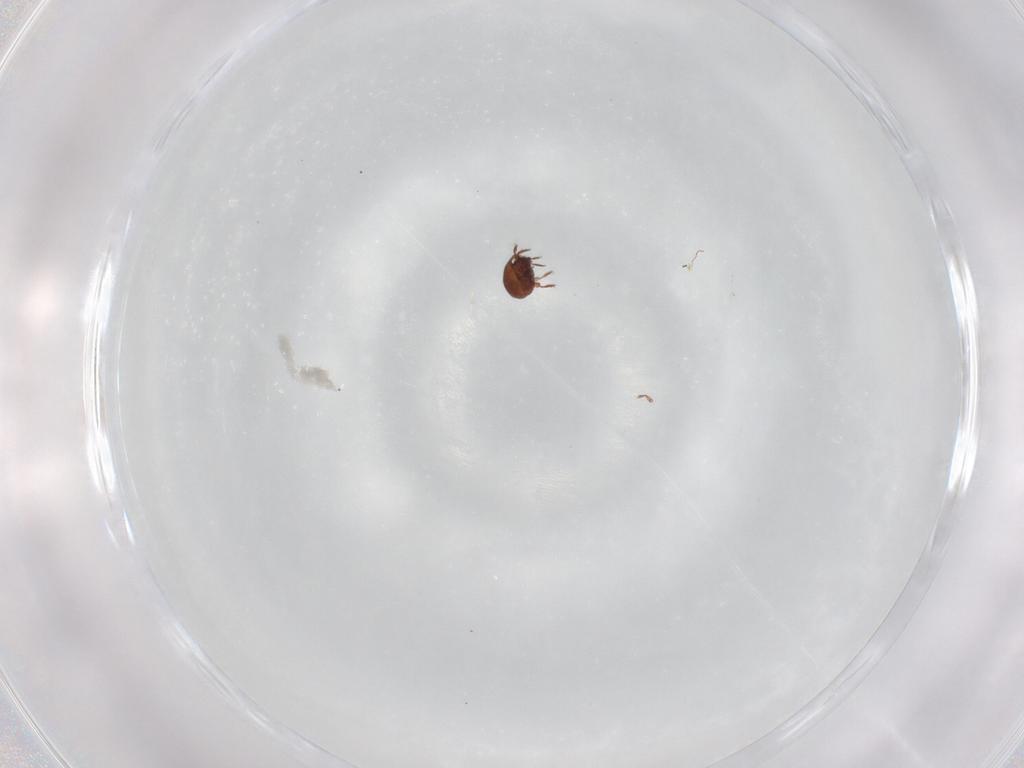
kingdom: Animalia
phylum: Arthropoda
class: Arachnida
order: Sarcoptiformes
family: Eremaeidae
